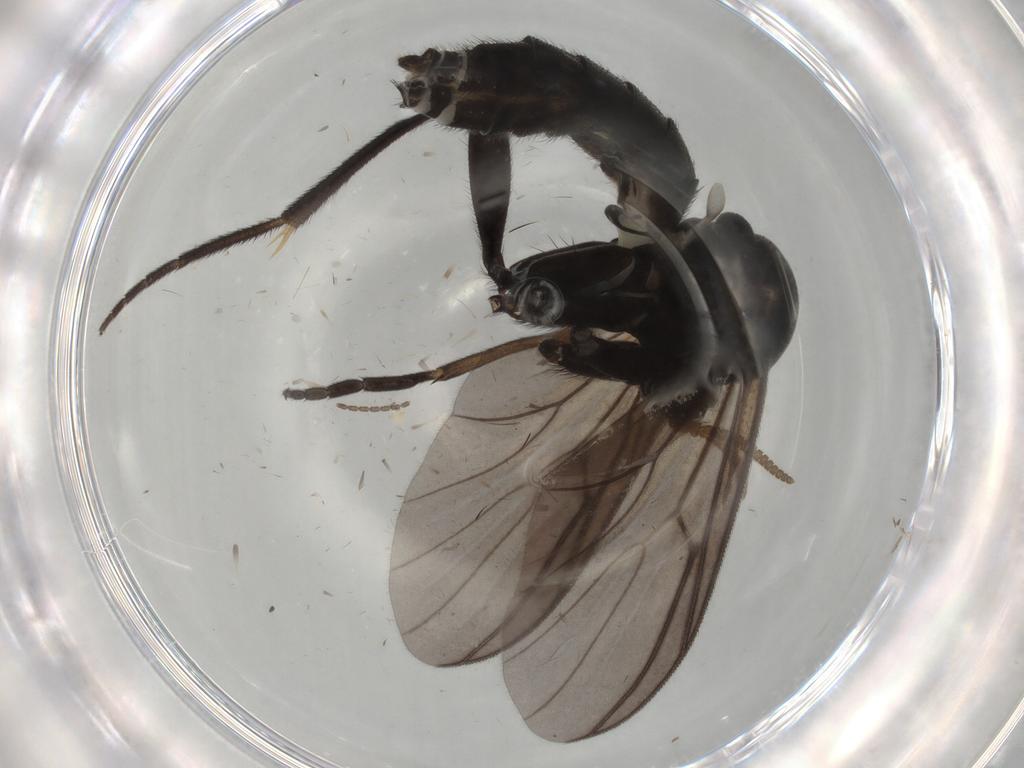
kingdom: Animalia
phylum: Arthropoda
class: Insecta
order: Diptera
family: Mycetophilidae
